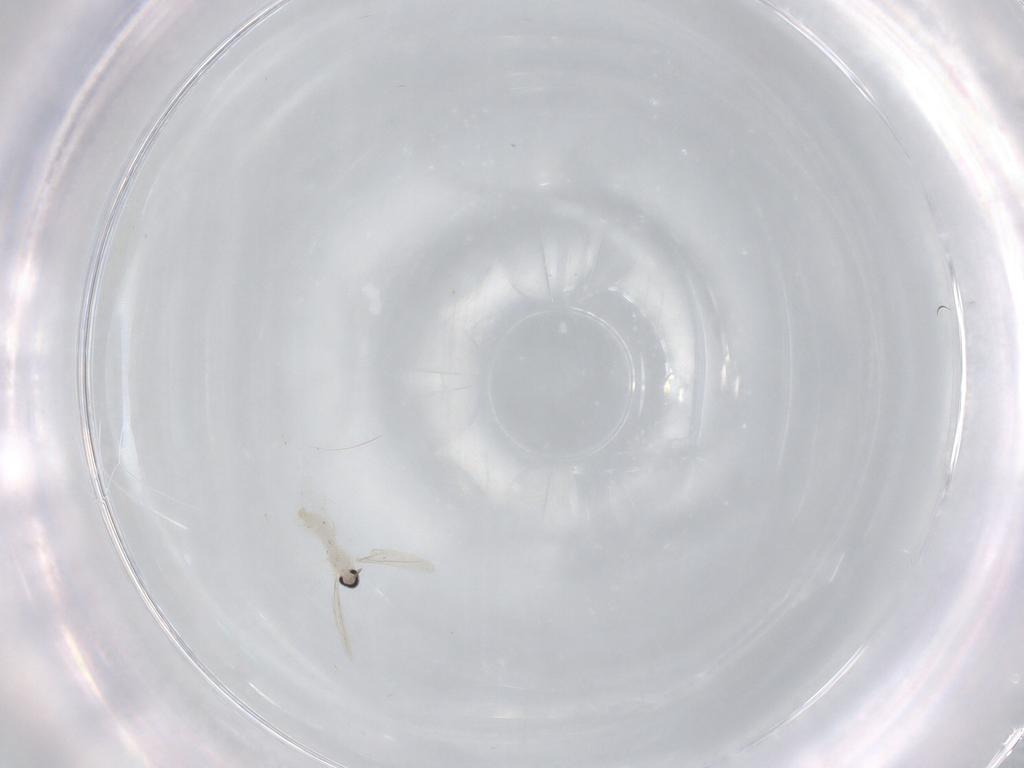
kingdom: Animalia
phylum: Arthropoda
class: Insecta
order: Diptera
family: Cecidomyiidae
